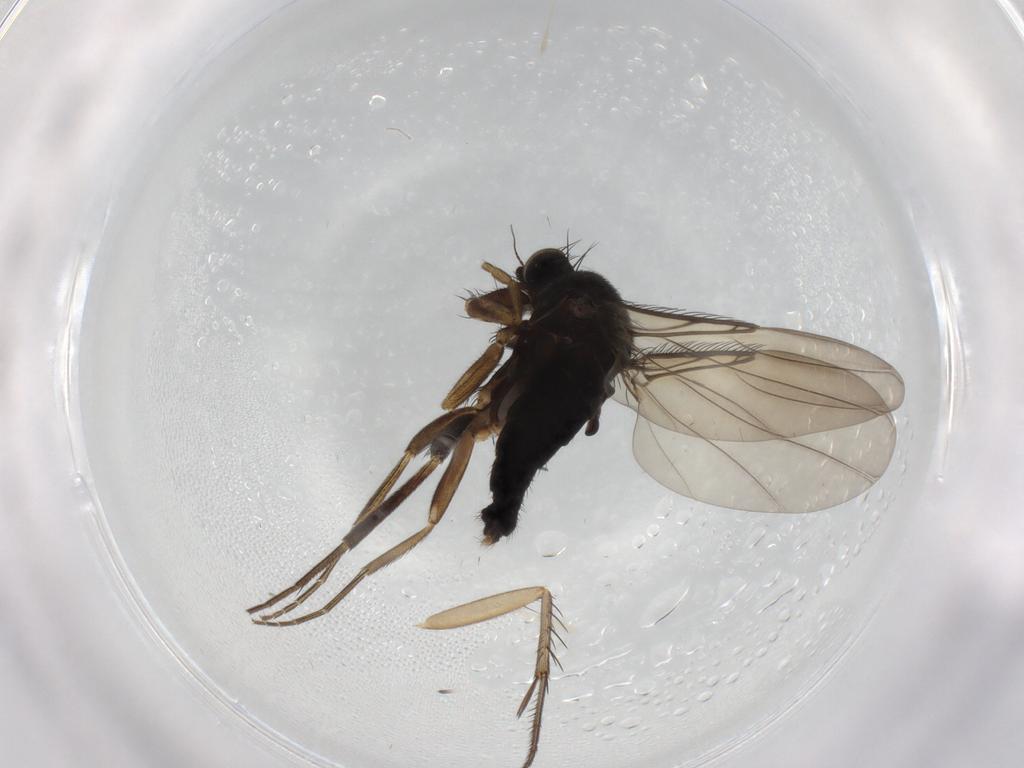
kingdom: Animalia
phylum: Arthropoda
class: Insecta
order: Diptera
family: Phoridae
